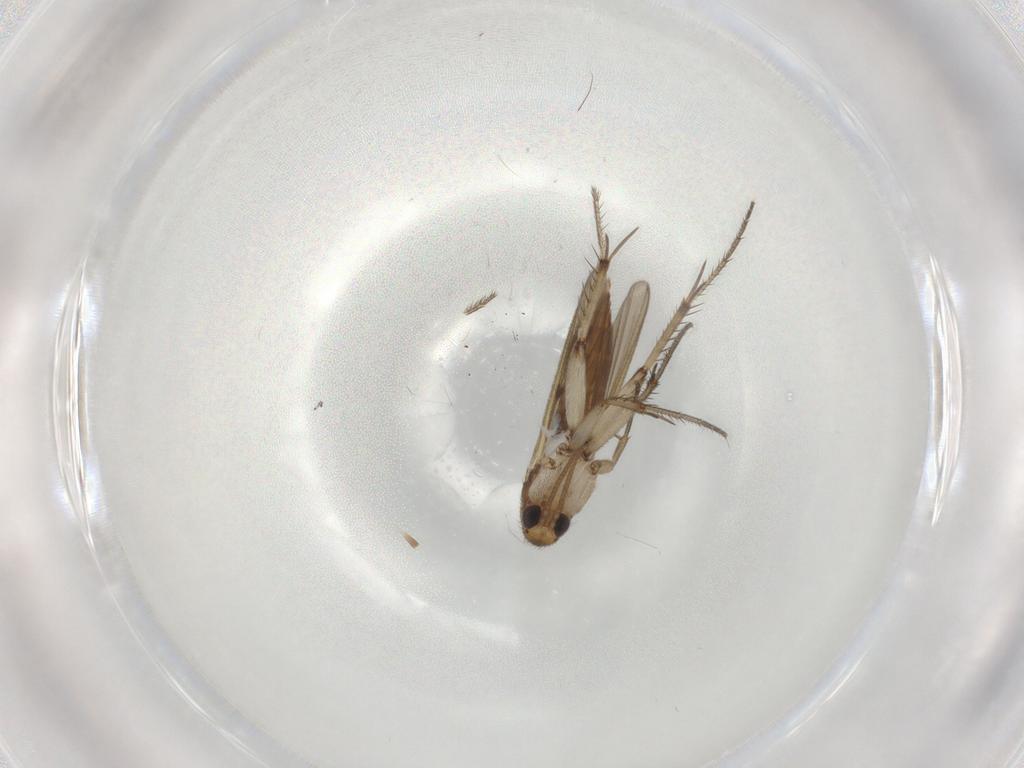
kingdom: Animalia
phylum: Arthropoda
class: Insecta
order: Diptera
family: Mycetophilidae
